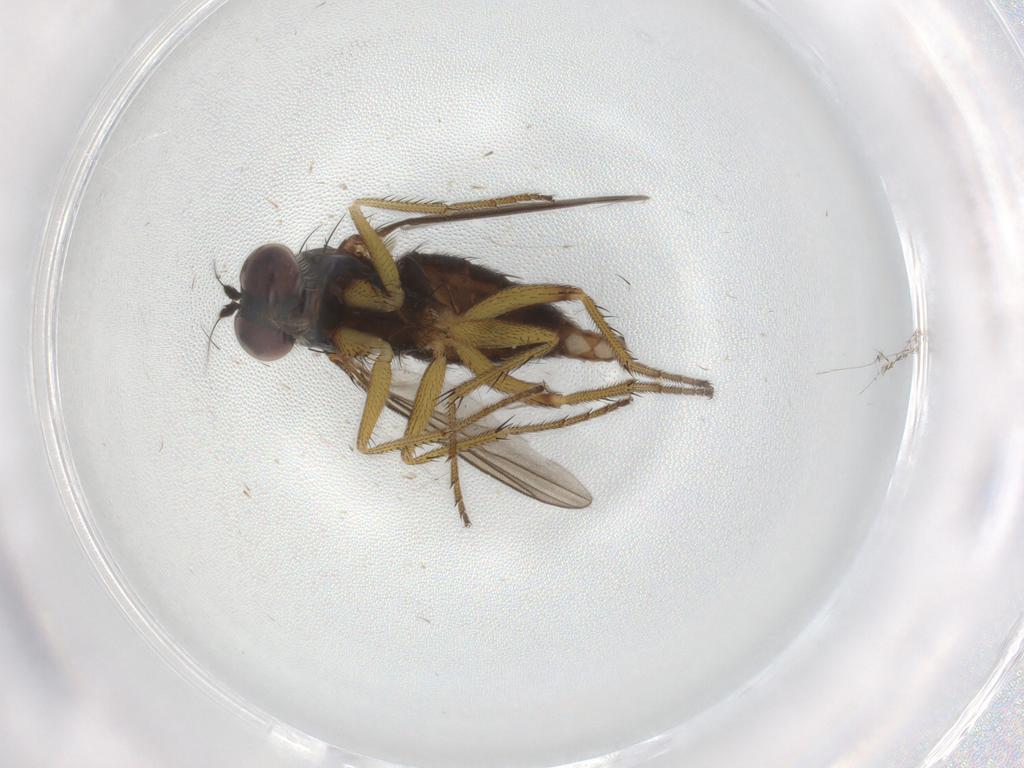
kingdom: Animalia
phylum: Arthropoda
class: Insecta
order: Diptera
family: Dolichopodidae
